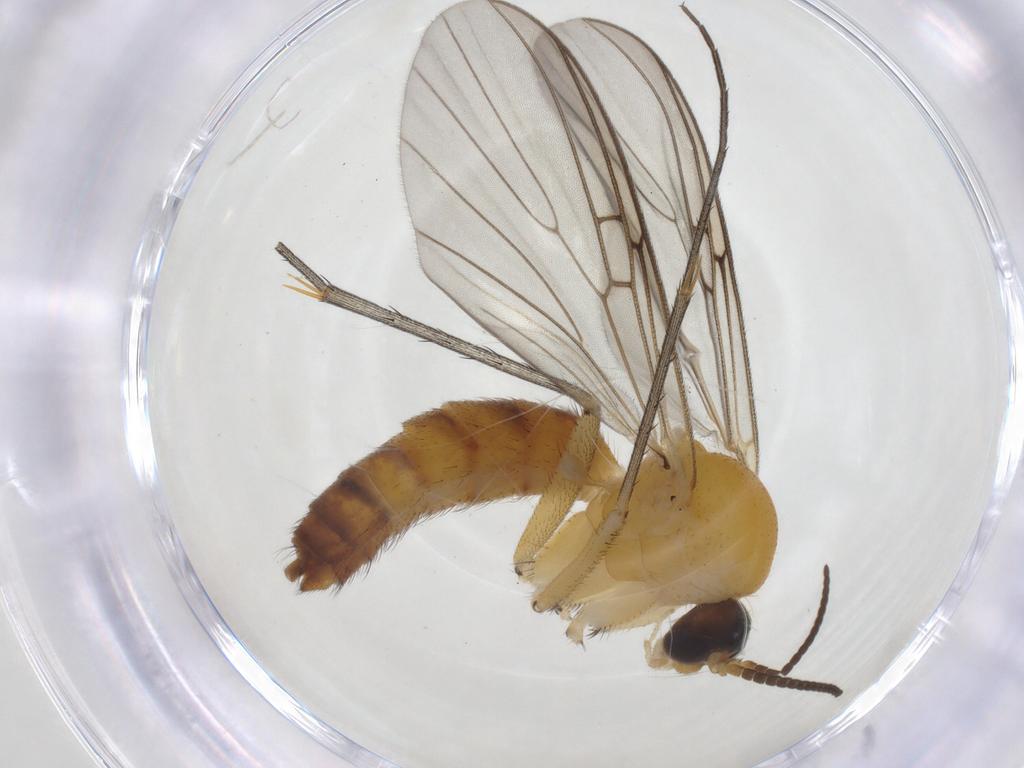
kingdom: Animalia
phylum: Arthropoda
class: Insecta
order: Diptera
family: Mycetophilidae
